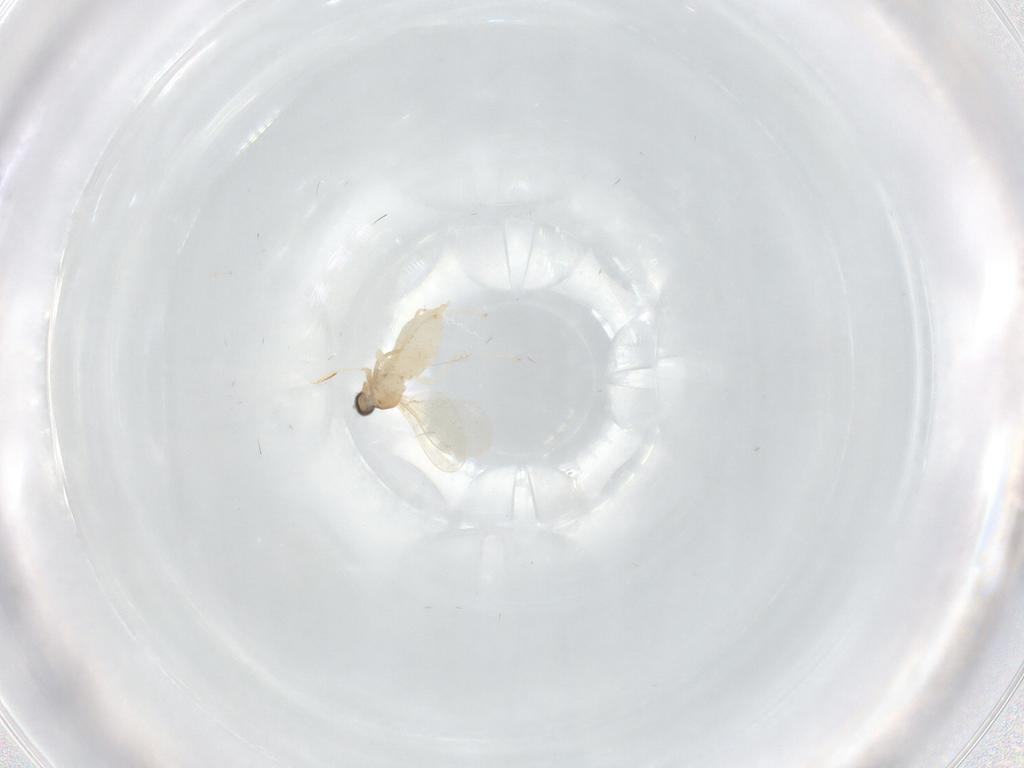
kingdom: Animalia
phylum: Arthropoda
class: Insecta
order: Diptera
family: Cecidomyiidae
